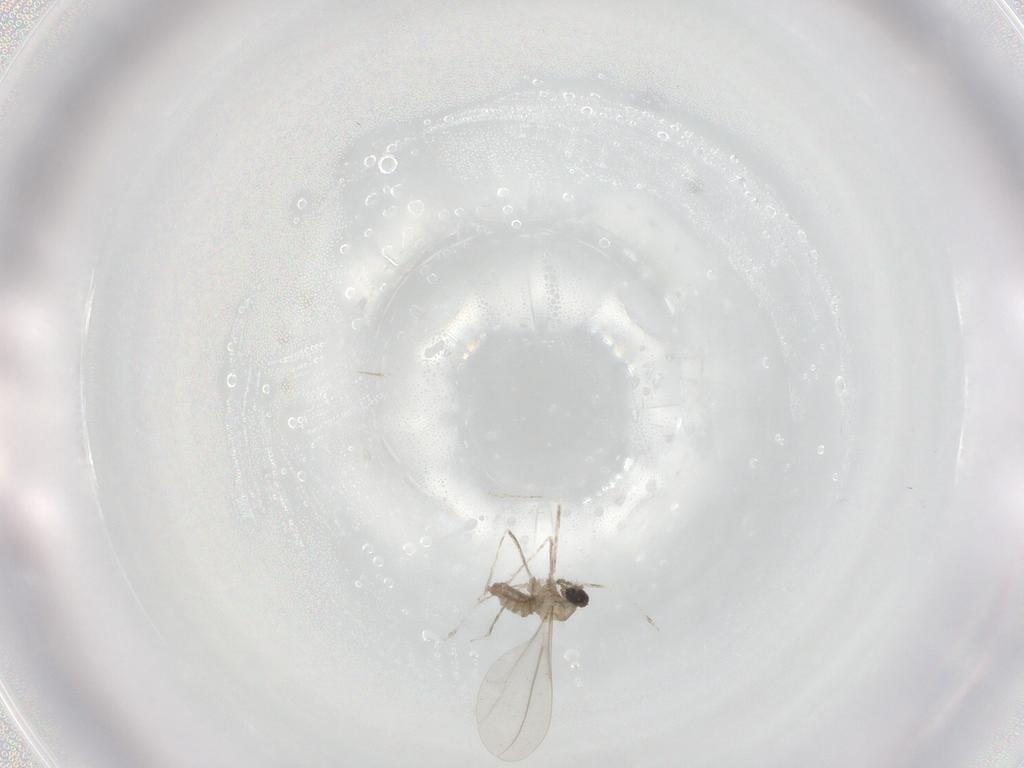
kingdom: Animalia
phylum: Arthropoda
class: Insecta
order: Diptera
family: Cecidomyiidae
